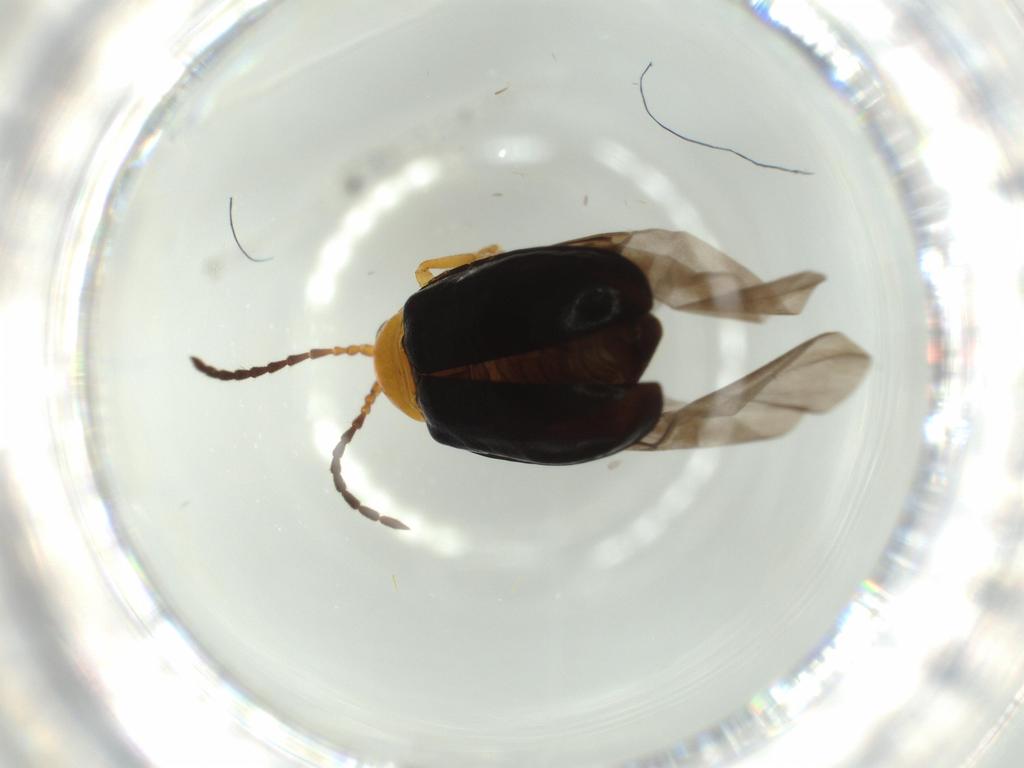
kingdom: Animalia
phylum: Arthropoda
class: Insecta
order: Coleoptera
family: Chrysomelidae
